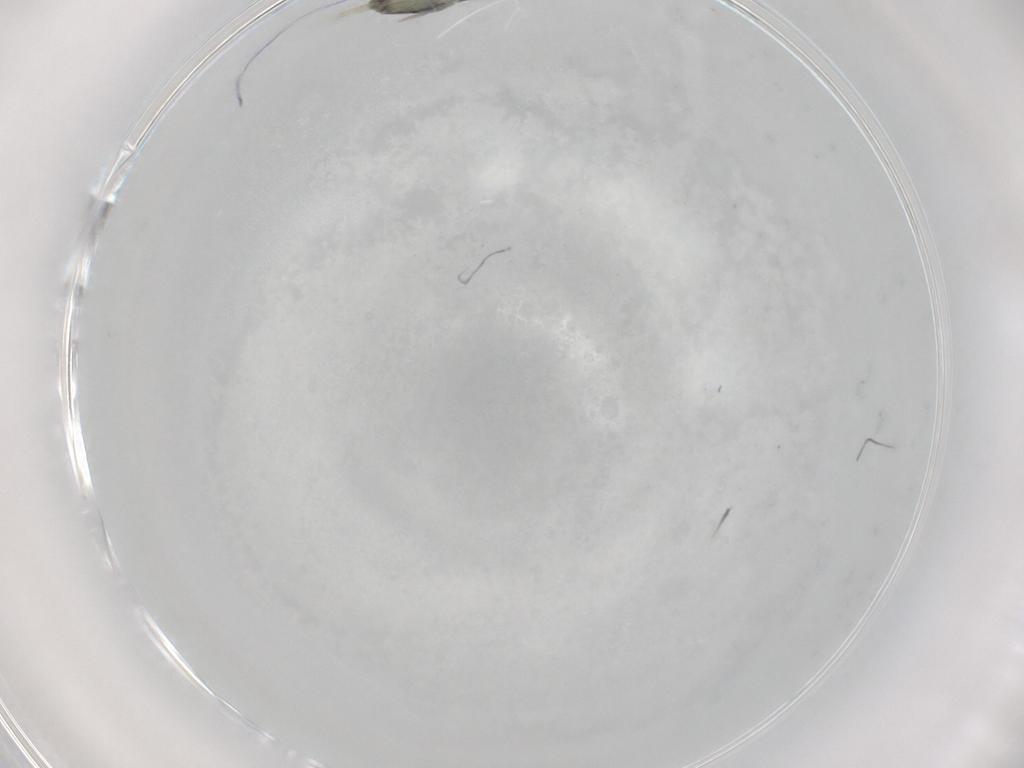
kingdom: Animalia
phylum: Arthropoda
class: Collembola
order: Entomobryomorpha
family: Entomobryidae
